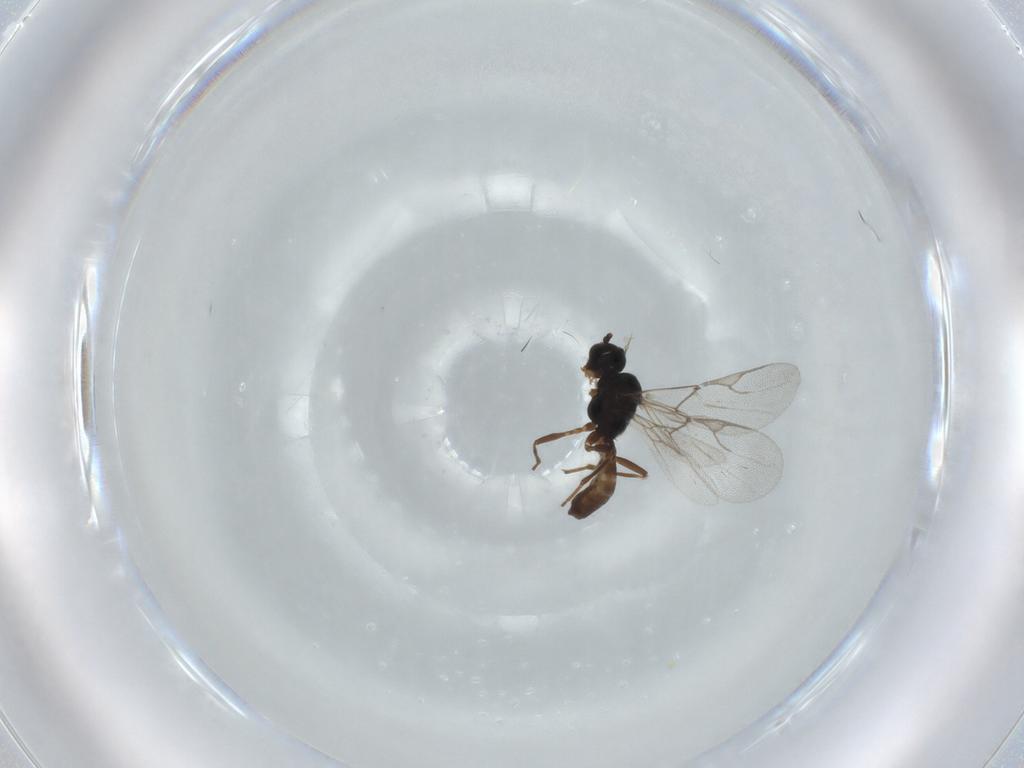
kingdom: Animalia
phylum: Arthropoda
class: Insecta
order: Hymenoptera
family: Braconidae
